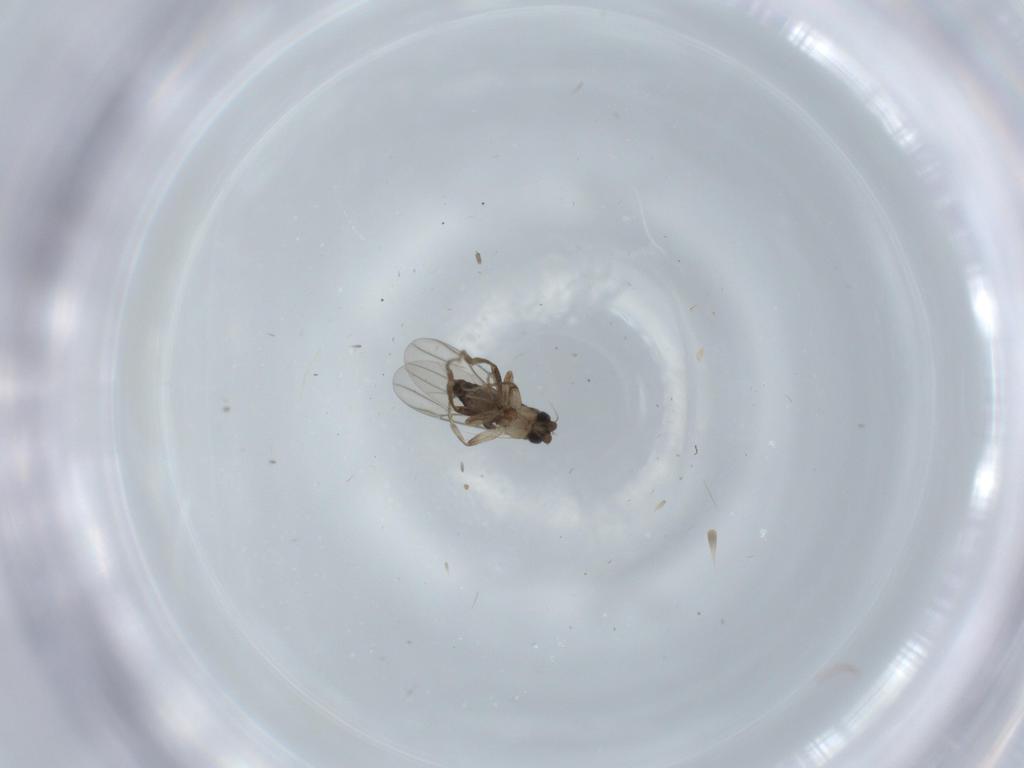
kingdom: Animalia
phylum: Arthropoda
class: Insecta
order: Diptera
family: Phoridae
